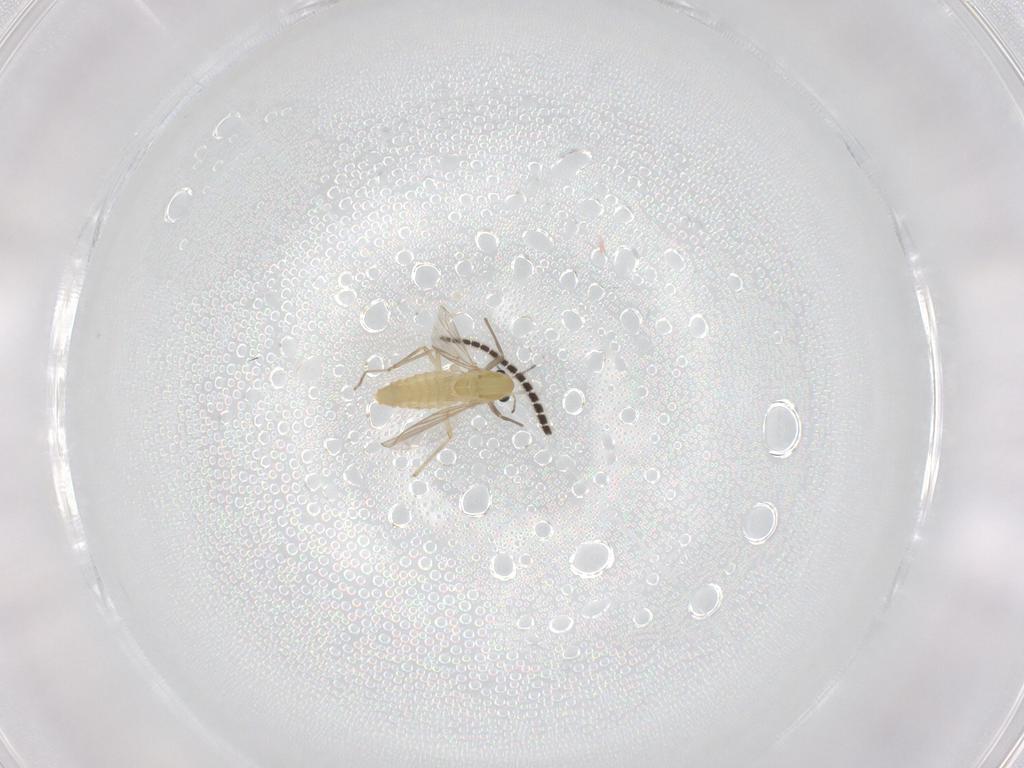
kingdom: Animalia
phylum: Arthropoda
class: Insecta
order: Diptera
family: Chironomidae
